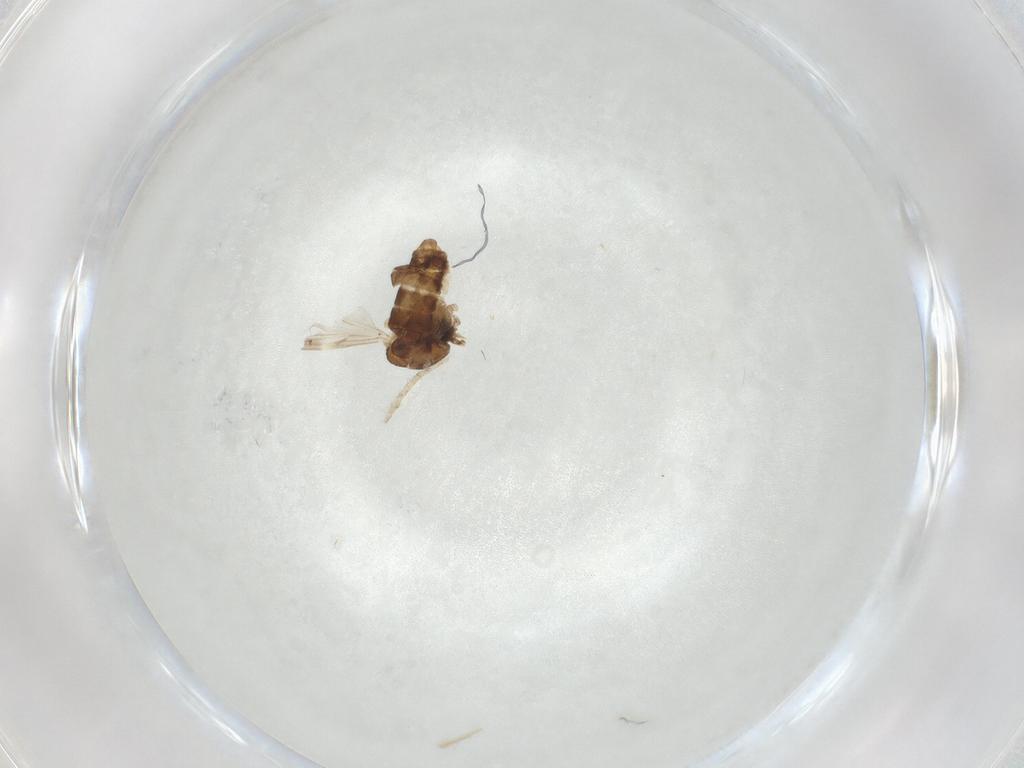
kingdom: Animalia
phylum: Arthropoda
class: Insecta
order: Diptera
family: Ceratopogonidae
